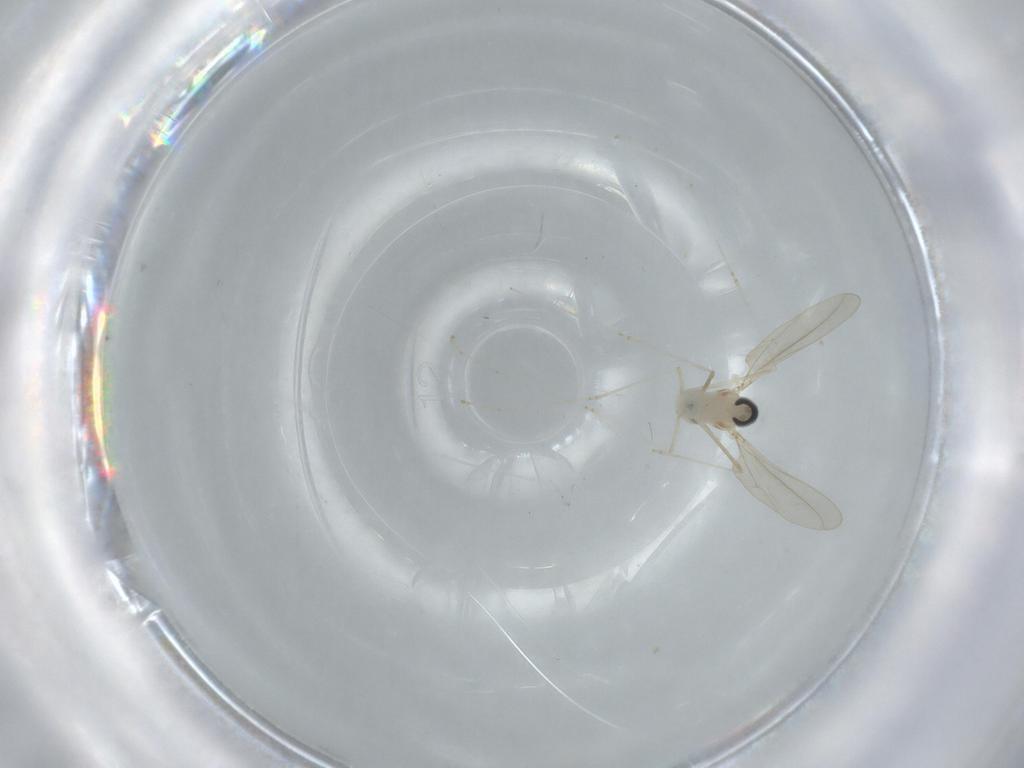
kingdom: Animalia
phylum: Arthropoda
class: Insecta
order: Diptera
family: Cecidomyiidae
